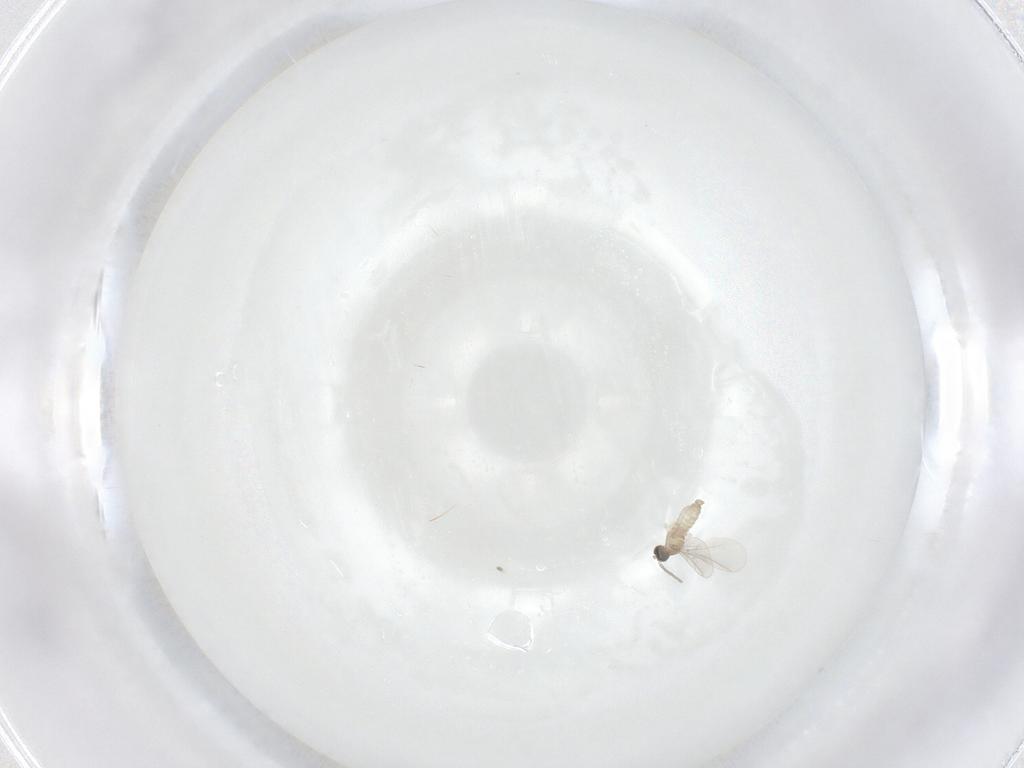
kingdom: Animalia
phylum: Arthropoda
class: Insecta
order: Diptera
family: Cecidomyiidae
